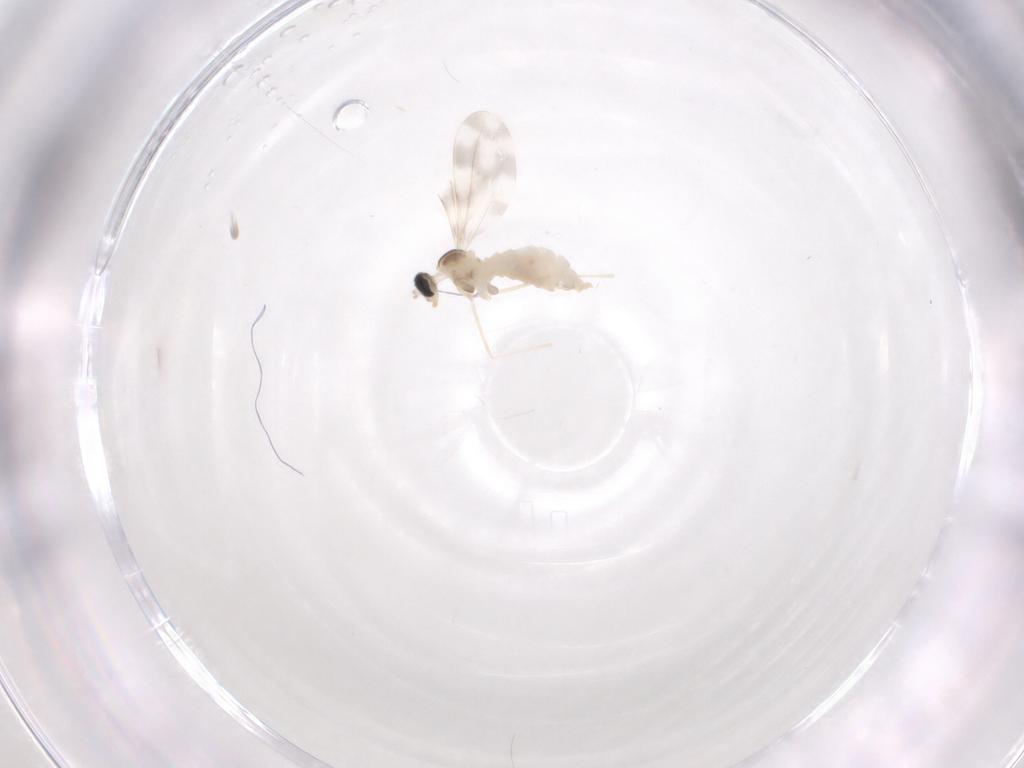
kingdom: Animalia
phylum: Arthropoda
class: Insecta
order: Diptera
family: Cecidomyiidae
